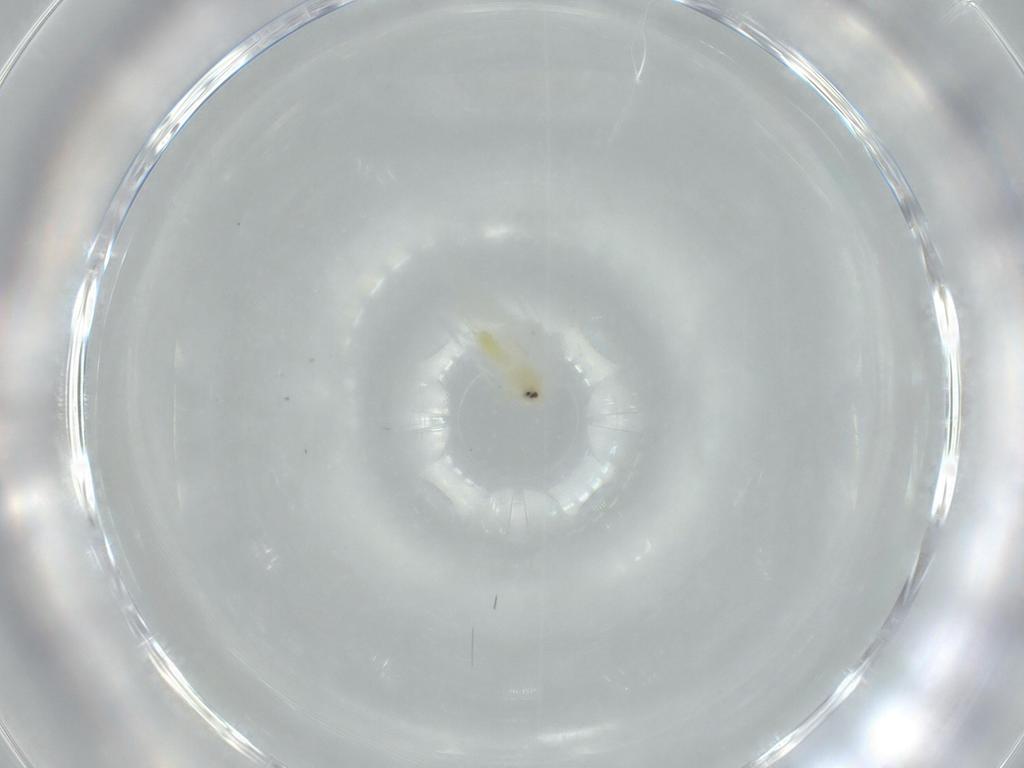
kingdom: Animalia
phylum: Arthropoda
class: Insecta
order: Hemiptera
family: Aleyrodidae
